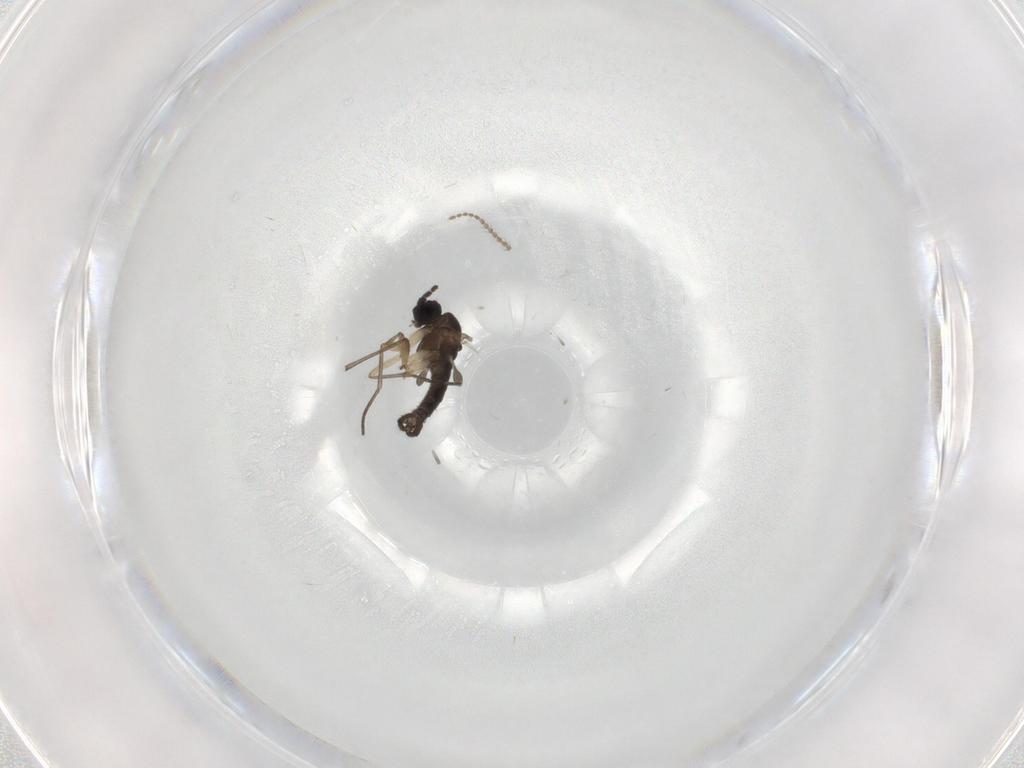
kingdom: Animalia
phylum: Arthropoda
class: Insecta
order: Diptera
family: Sciaridae
